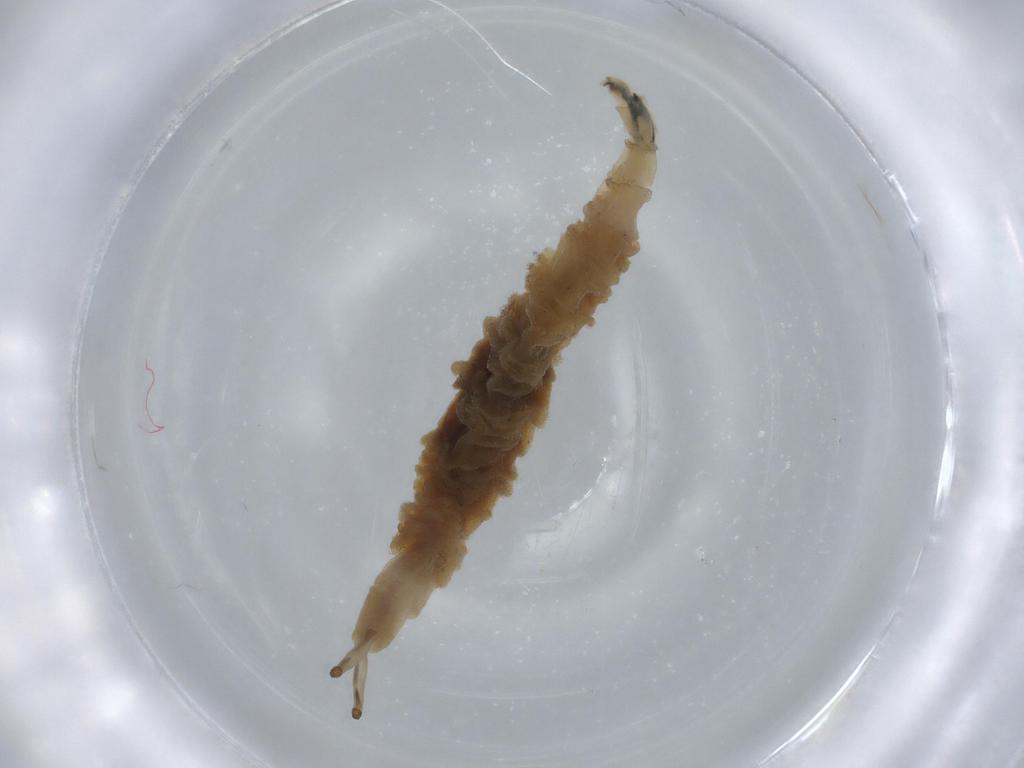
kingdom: Animalia
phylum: Arthropoda
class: Insecta
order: Diptera
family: Ephydridae
